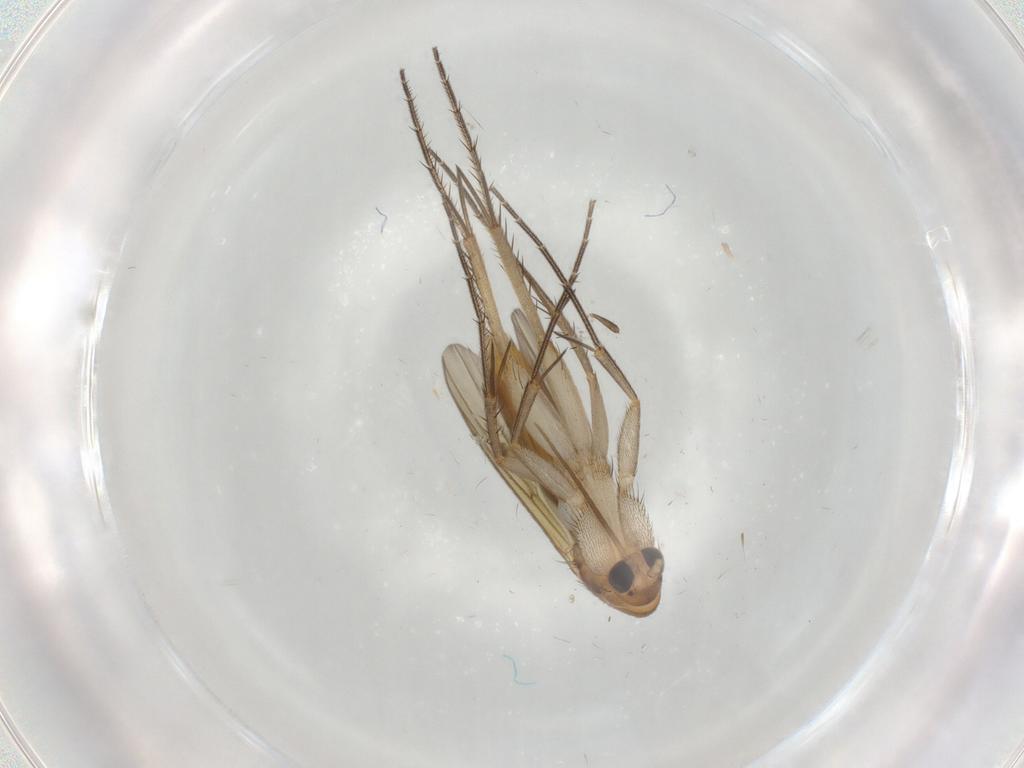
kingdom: Animalia
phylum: Arthropoda
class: Insecta
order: Diptera
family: Mycetophilidae
